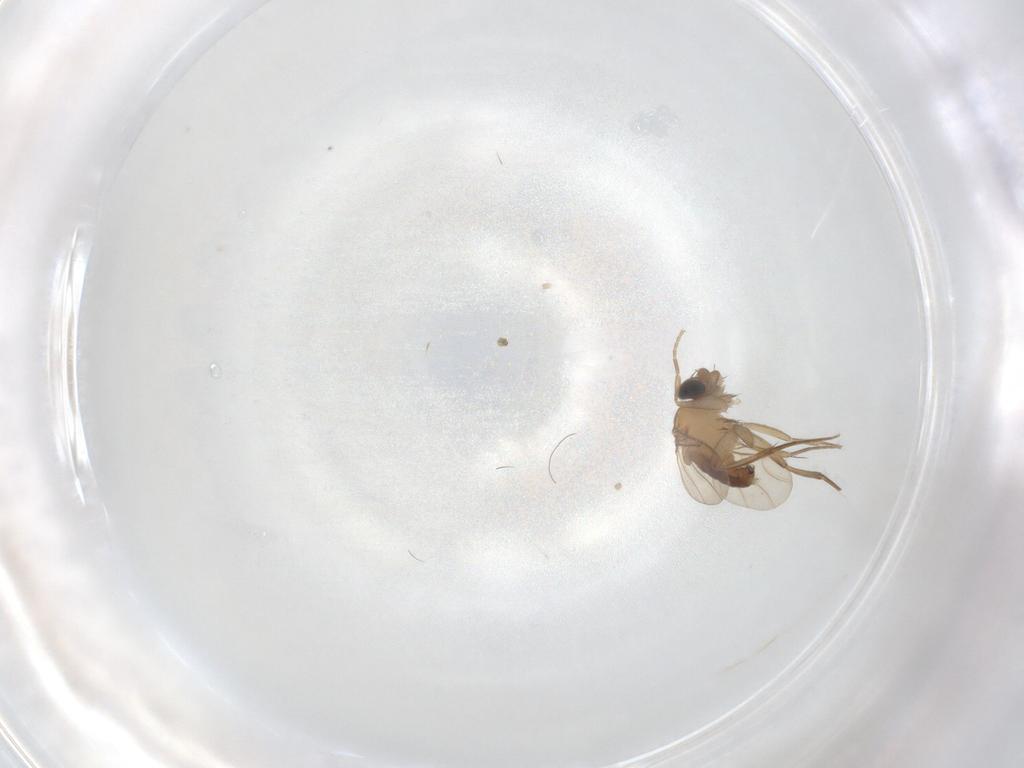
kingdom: Animalia
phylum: Arthropoda
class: Insecta
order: Diptera
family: Phoridae
